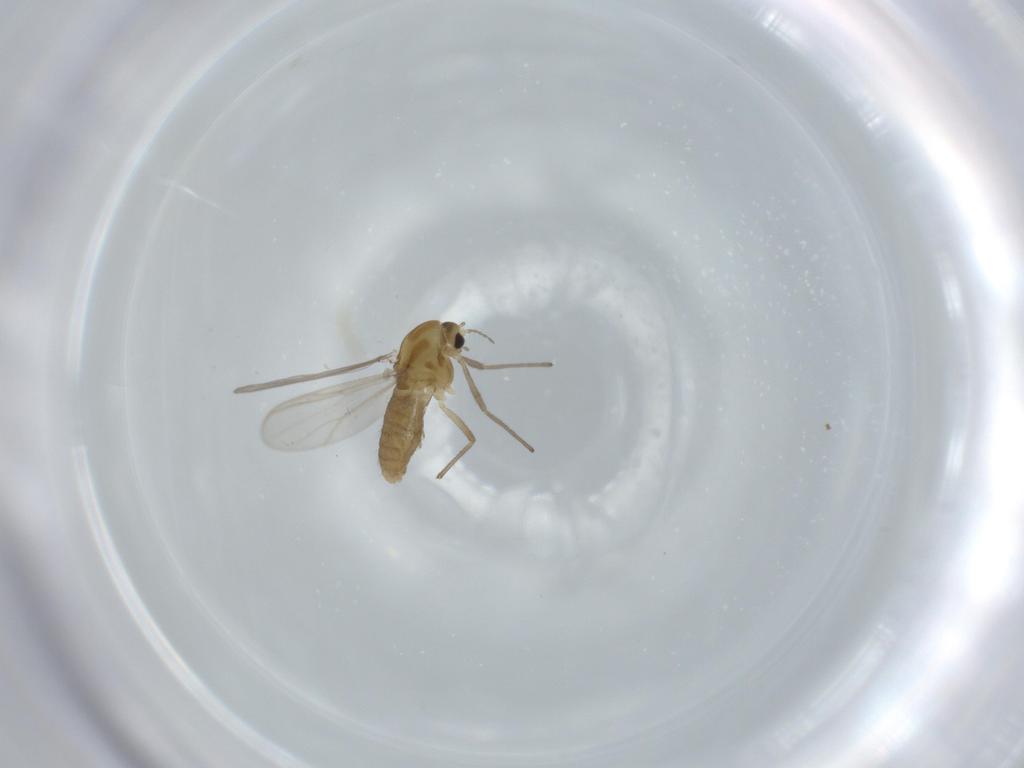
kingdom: Animalia
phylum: Arthropoda
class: Insecta
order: Diptera
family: Chironomidae
